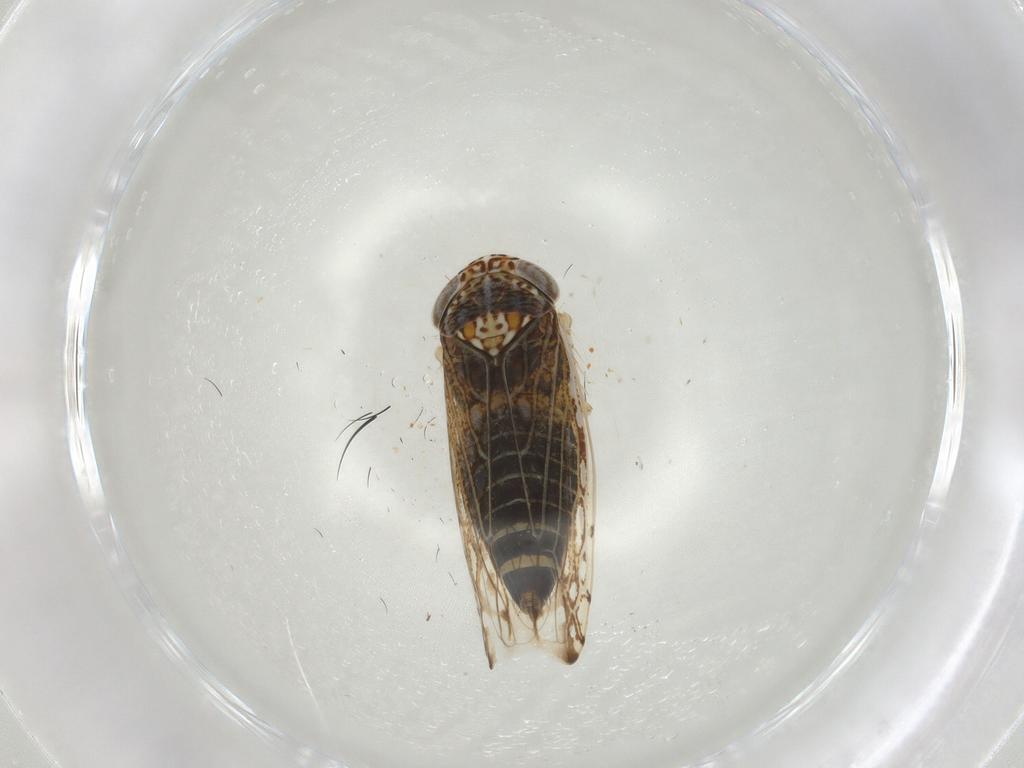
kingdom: Animalia
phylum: Arthropoda
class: Insecta
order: Hemiptera
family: Cicadellidae
